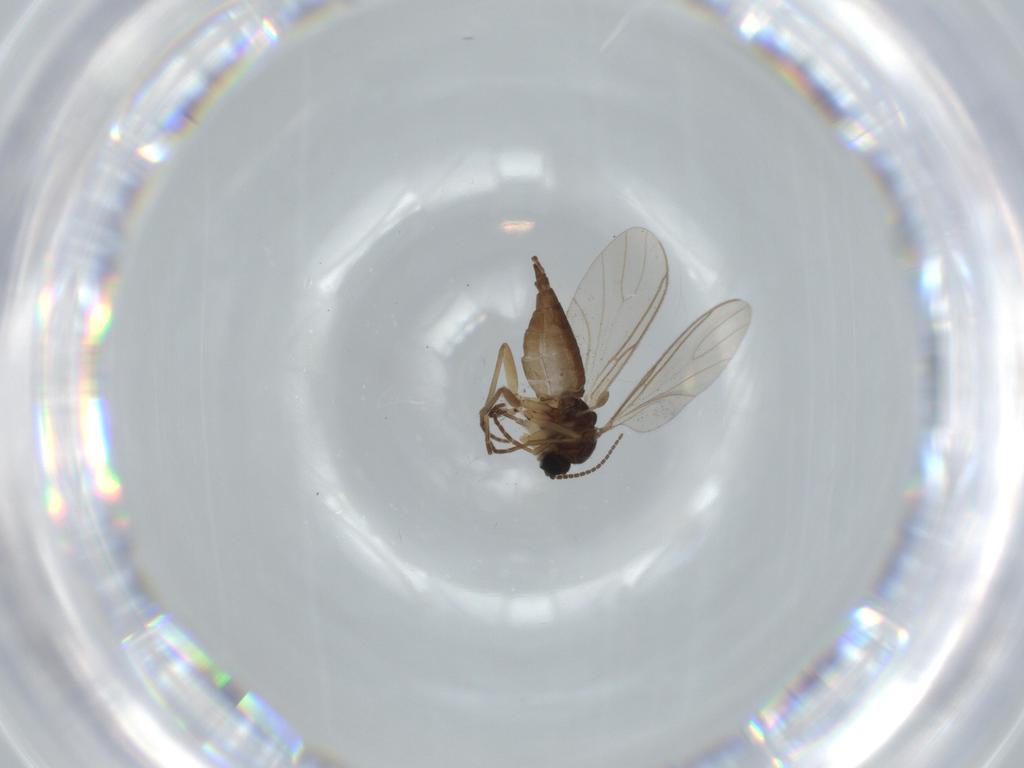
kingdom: Animalia
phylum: Arthropoda
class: Insecta
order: Diptera
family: Sciaridae
